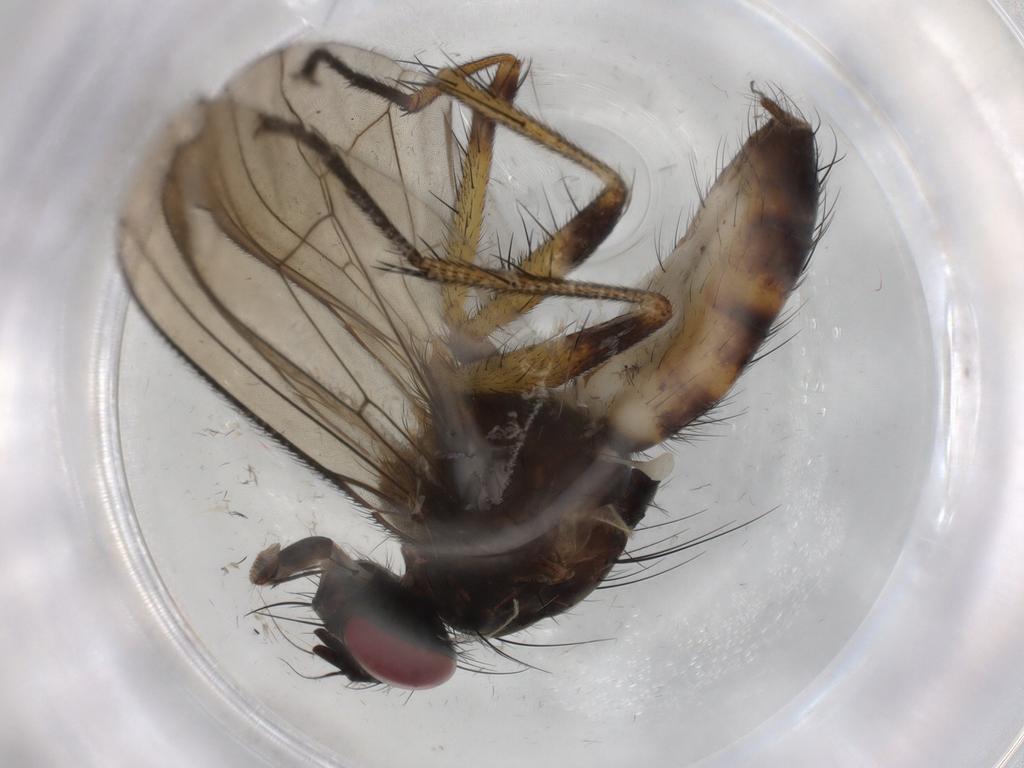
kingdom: Animalia
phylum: Arthropoda
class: Insecta
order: Diptera
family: Muscidae
